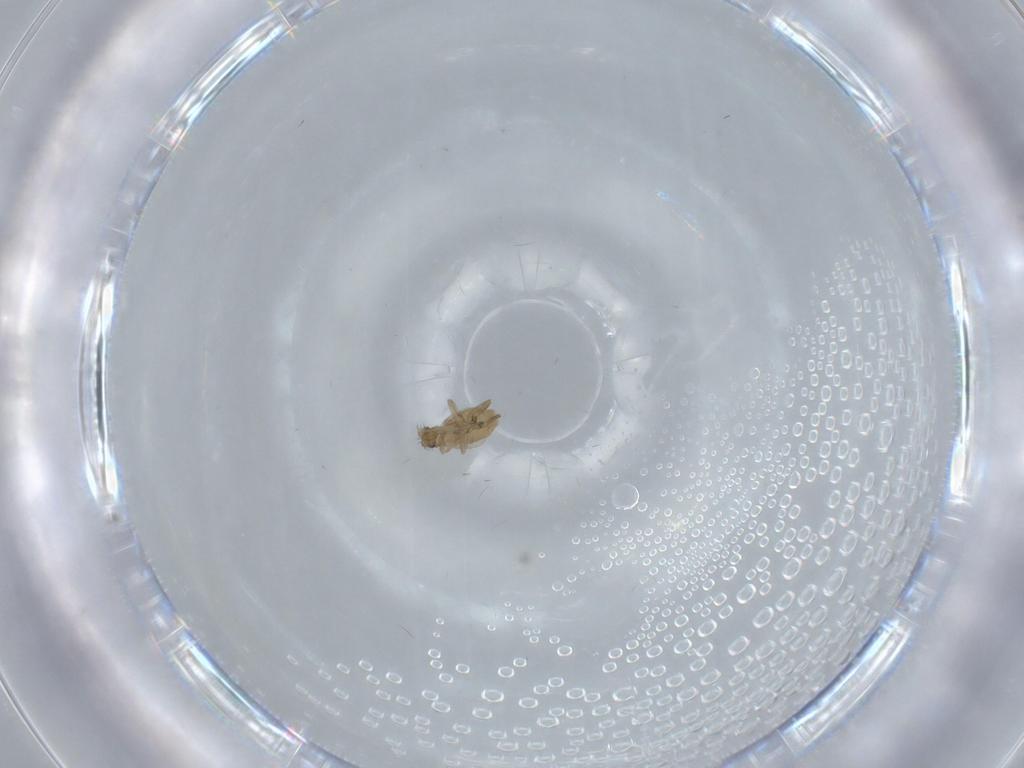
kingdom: Animalia
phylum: Arthropoda
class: Insecta
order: Diptera
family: Phoridae
